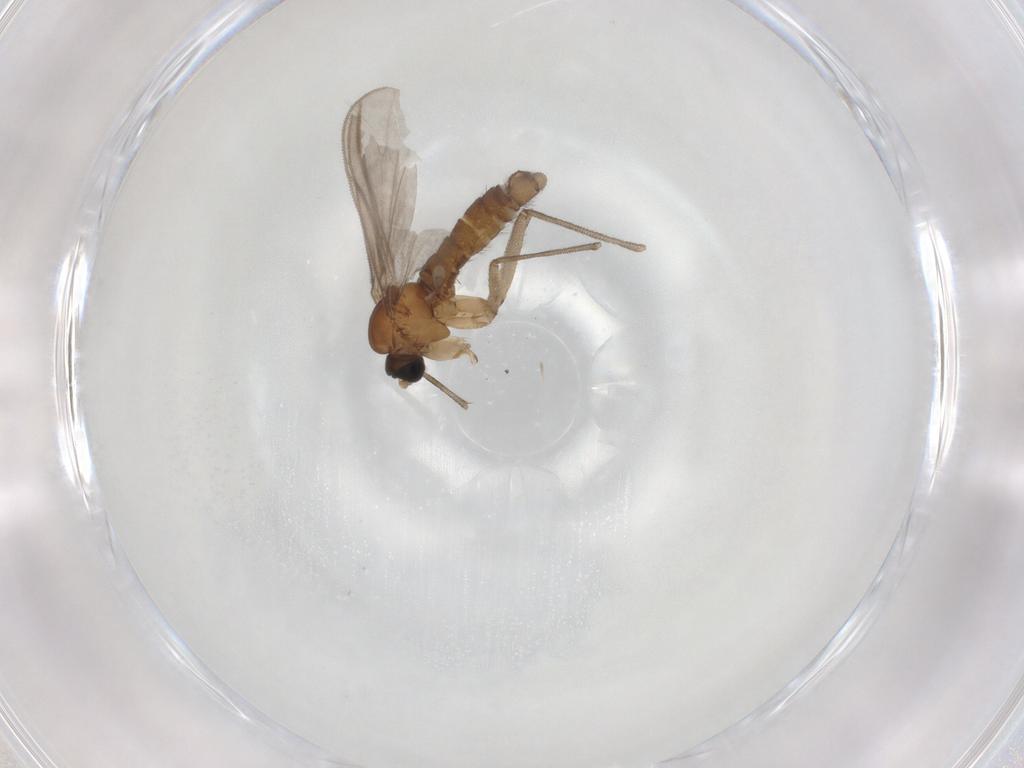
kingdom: Animalia
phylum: Arthropoda
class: Insecta
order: Diptera
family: Sciaridae
